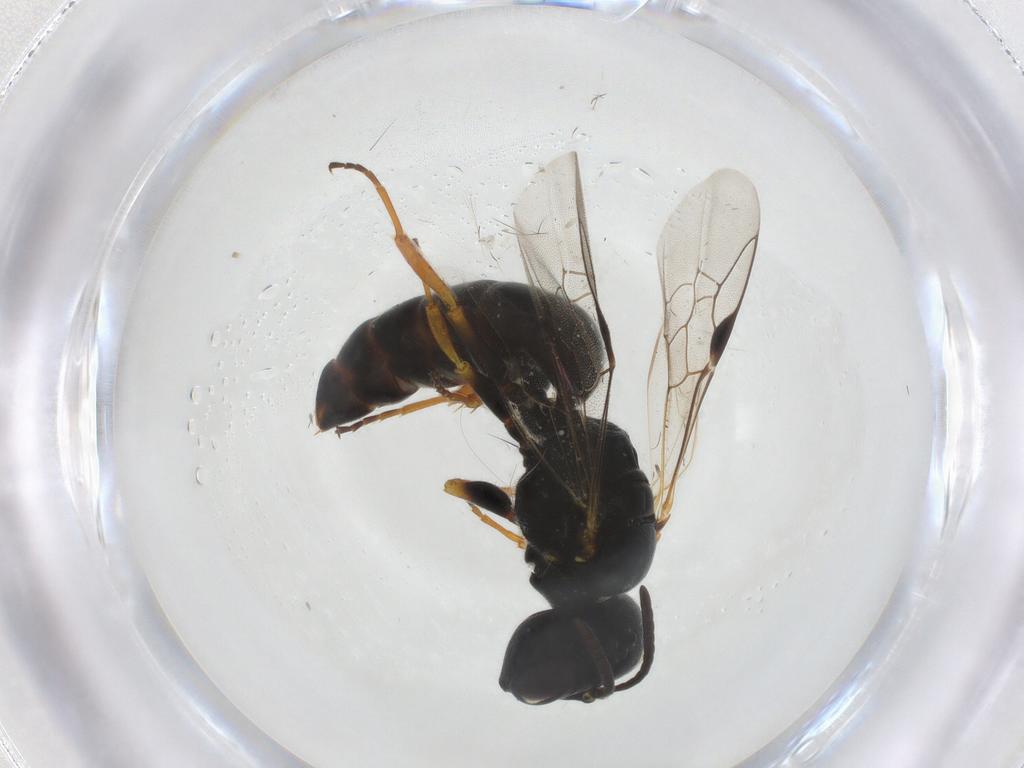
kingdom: Animalia
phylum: Arthropoda
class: Insecta
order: Hymenoptera
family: Pemphredonidae
